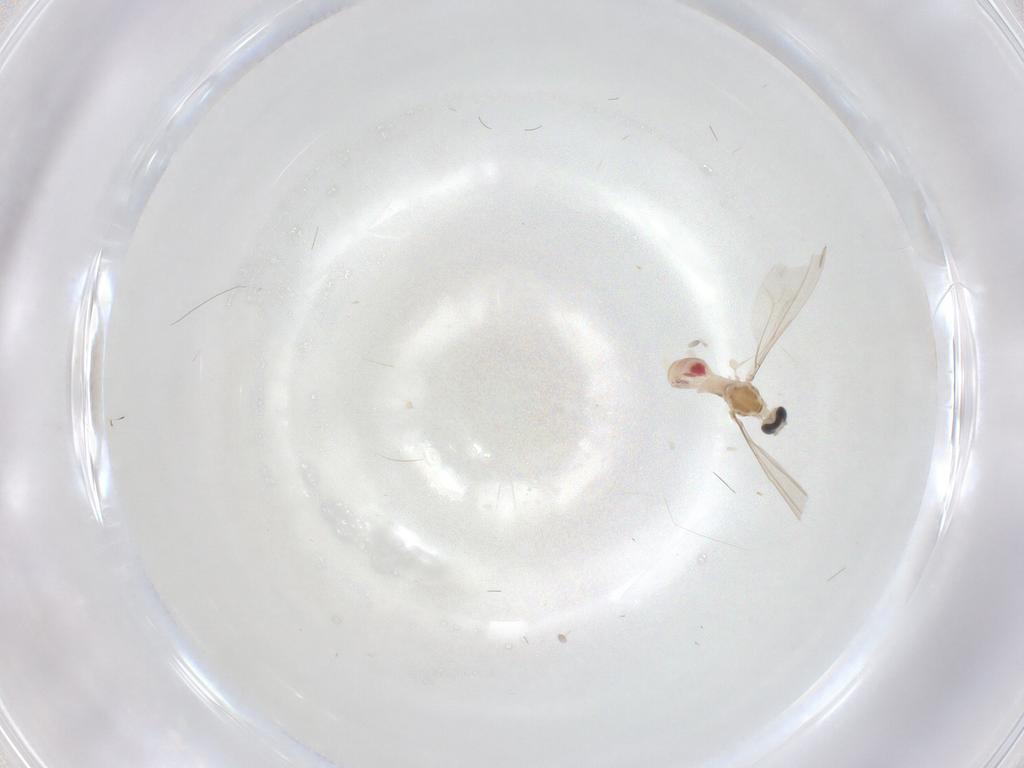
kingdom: Animalia
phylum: Arthropoda
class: Insecta
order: Diptera
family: Cecidomyiidae
